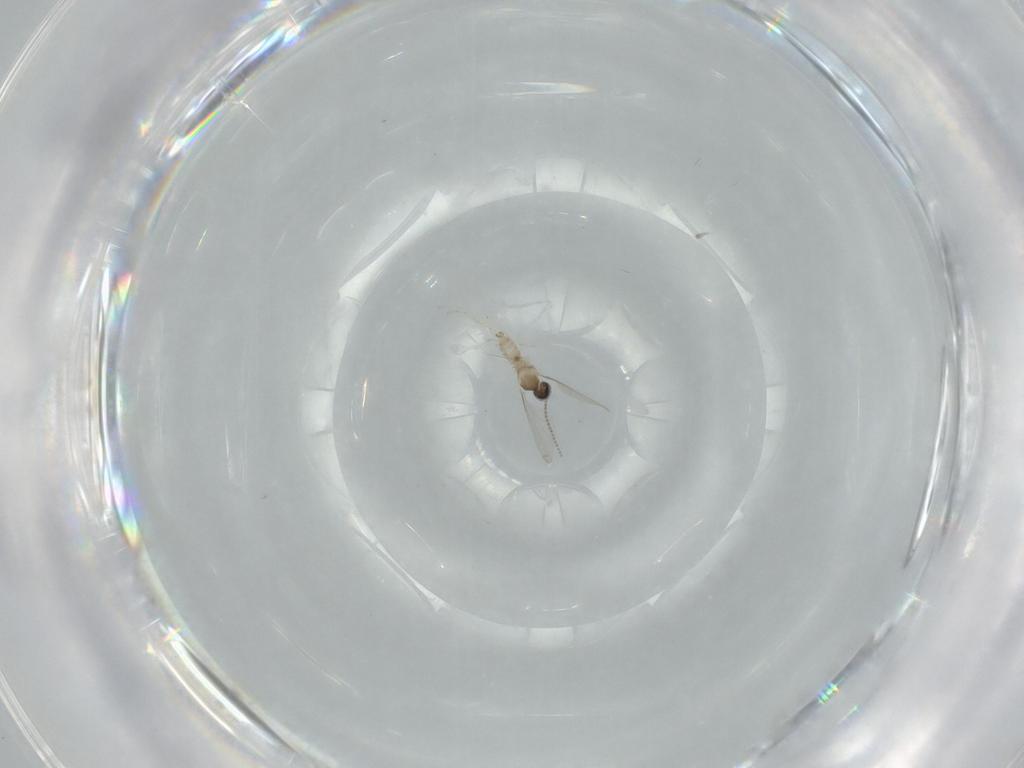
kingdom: Animalia
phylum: Arthropoda
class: Insecta
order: Diptera
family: Cecidomyiidae
